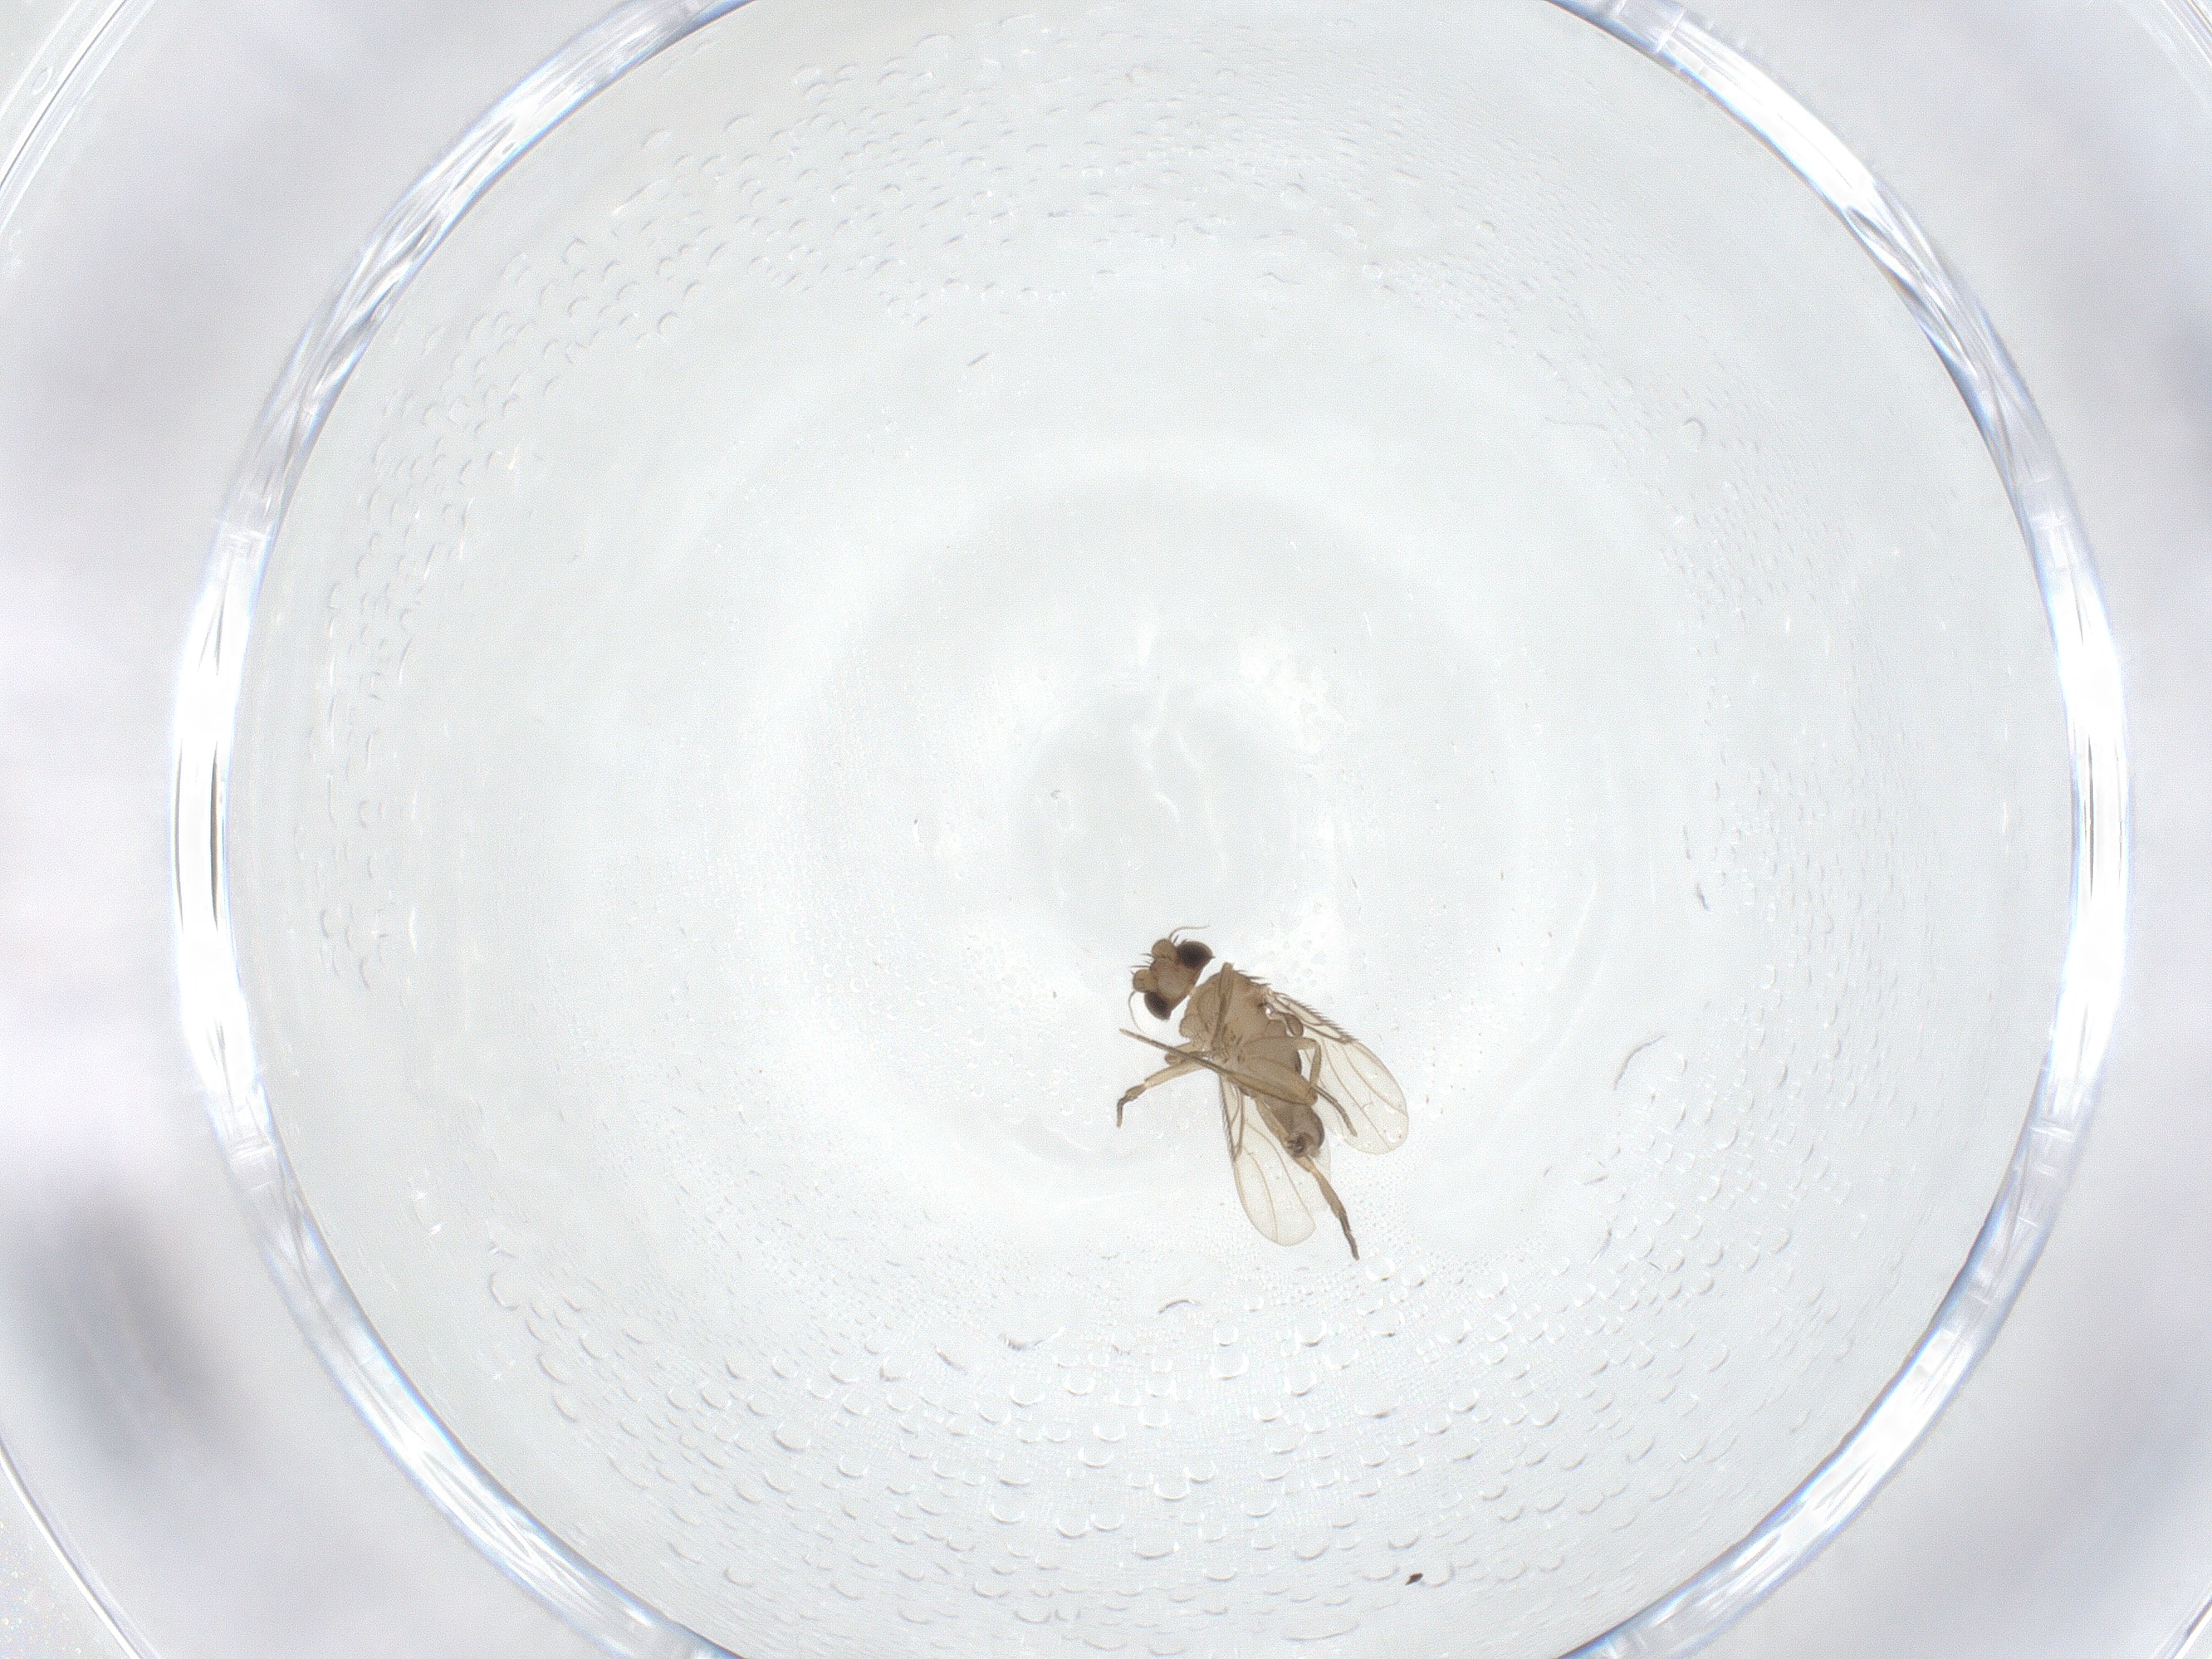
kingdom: Animalia
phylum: Arthropoda
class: Insecta
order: Diptera
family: Phoridae
